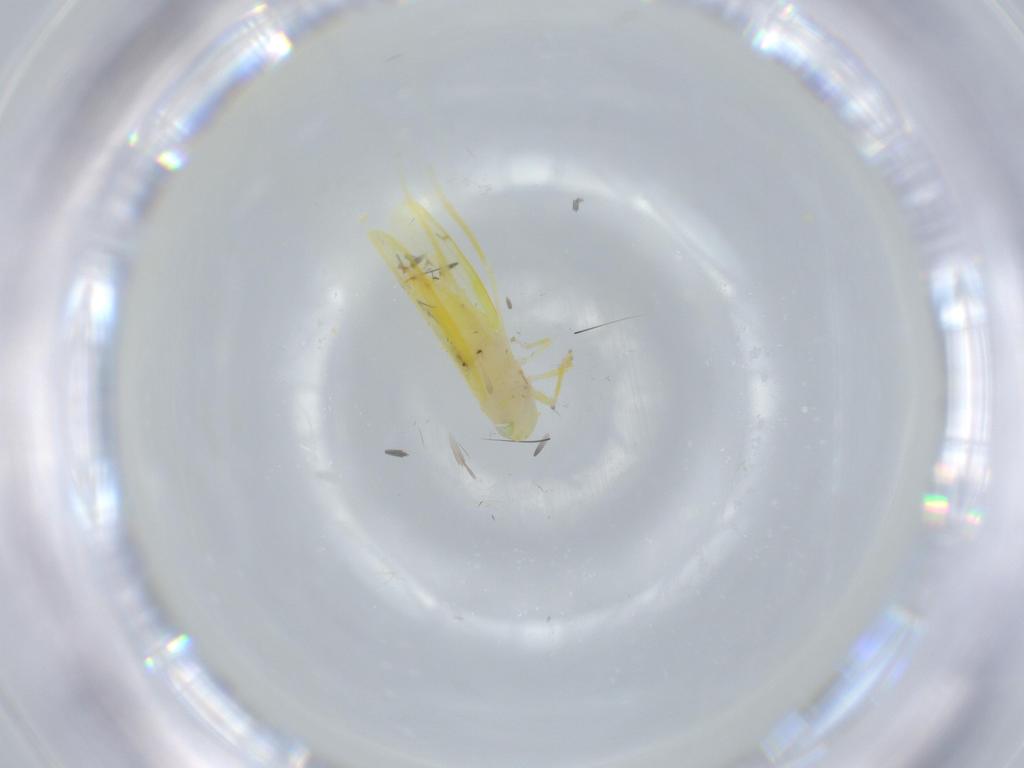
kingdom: Animalia
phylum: Arthropoda
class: Insecta
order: Hemiptera
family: Cicadellidae
